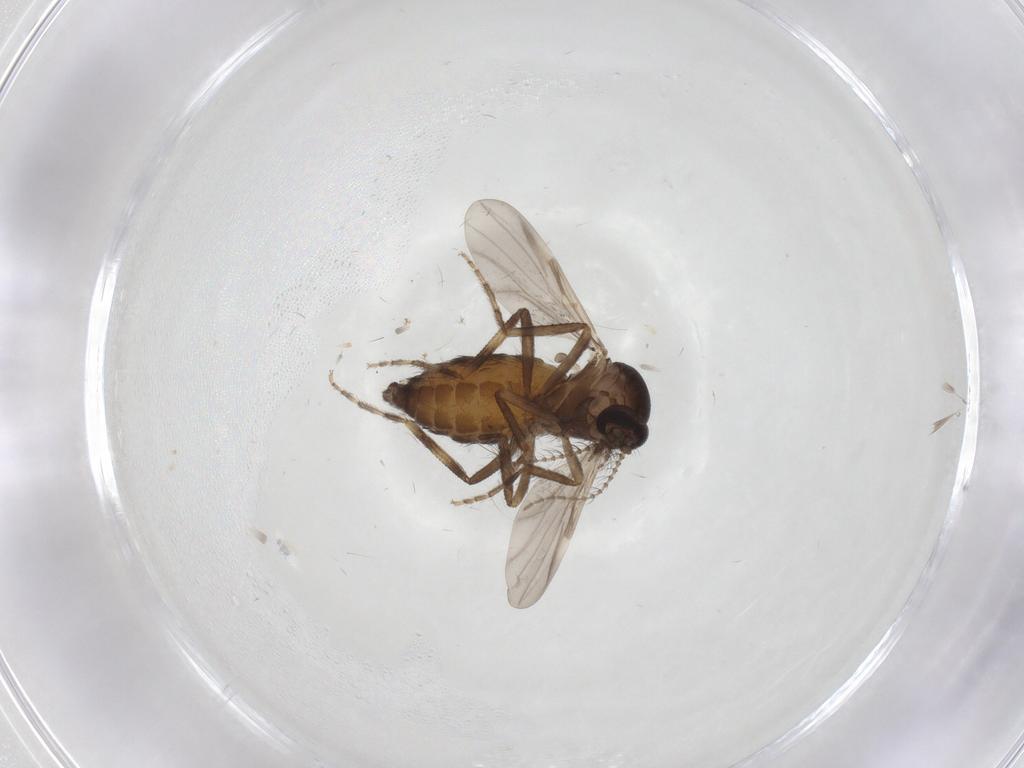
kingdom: Animalia
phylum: Arthropoda
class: Insecta
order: Diptera
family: Ceratopogonidae
